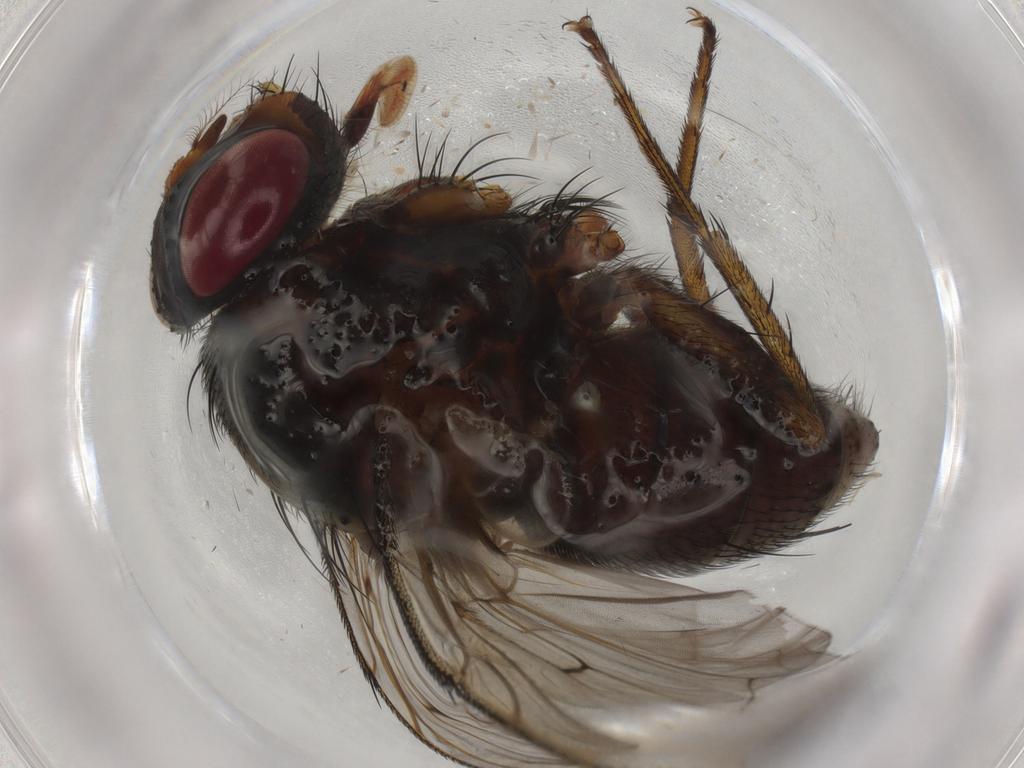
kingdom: Animalia
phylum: Arthropoda
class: Insecta
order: Diptera
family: Tachinidae
